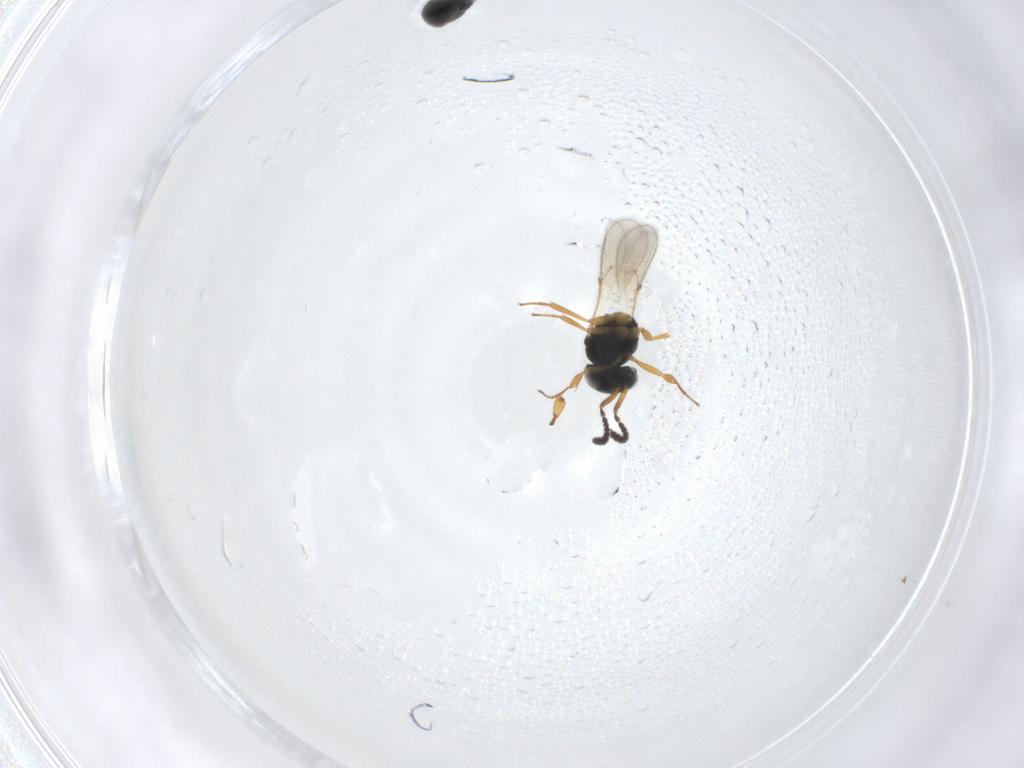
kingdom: Animalia
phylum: Arthropoda
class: Insecta
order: Hymenoptera
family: Scelionidae
